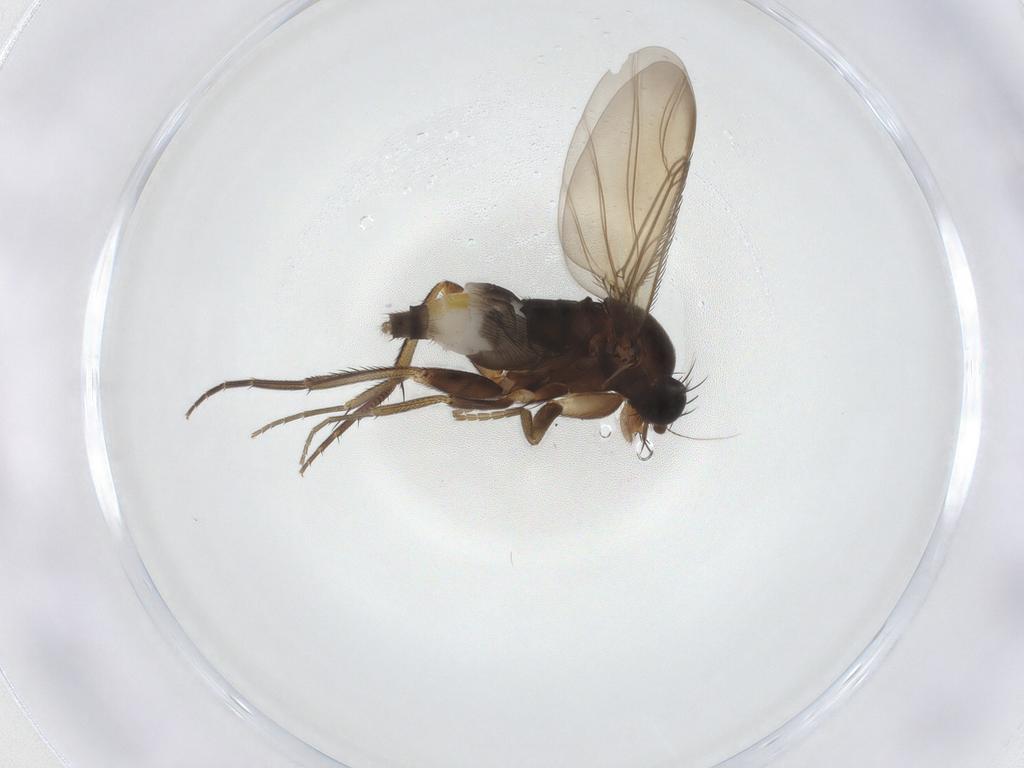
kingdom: Animalia
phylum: Arthropoda
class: Insecta
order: Diptera
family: Phoridae
